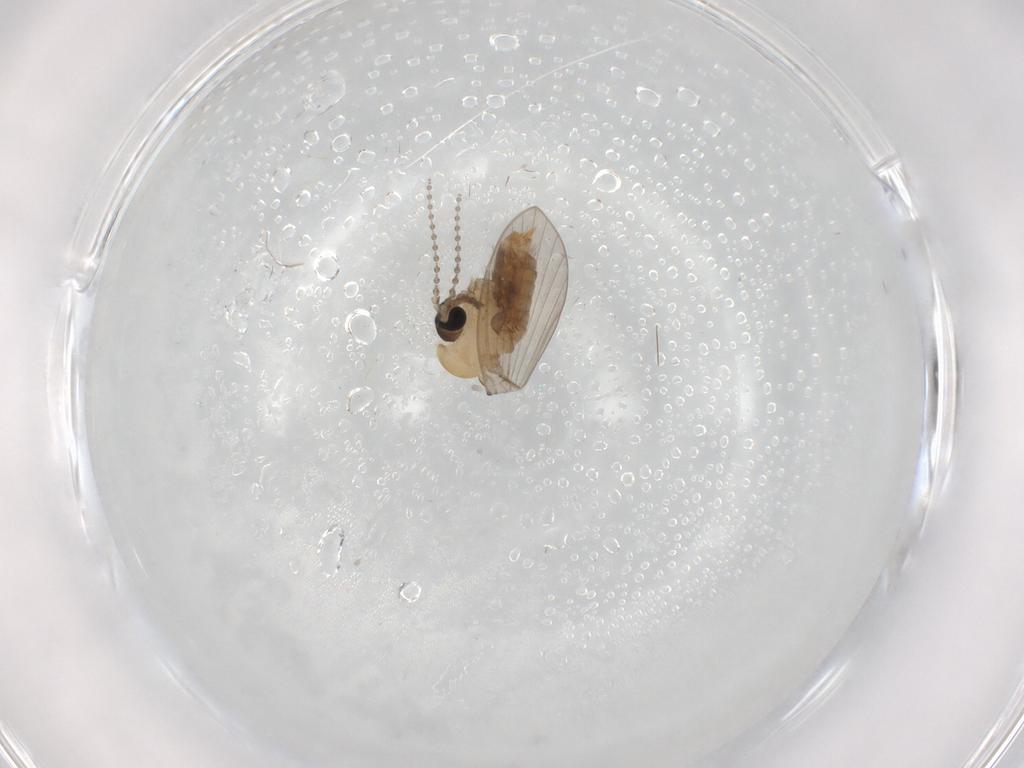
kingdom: Animalia
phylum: Arthropoda
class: Insecta
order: Diptera
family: Psychodidae
